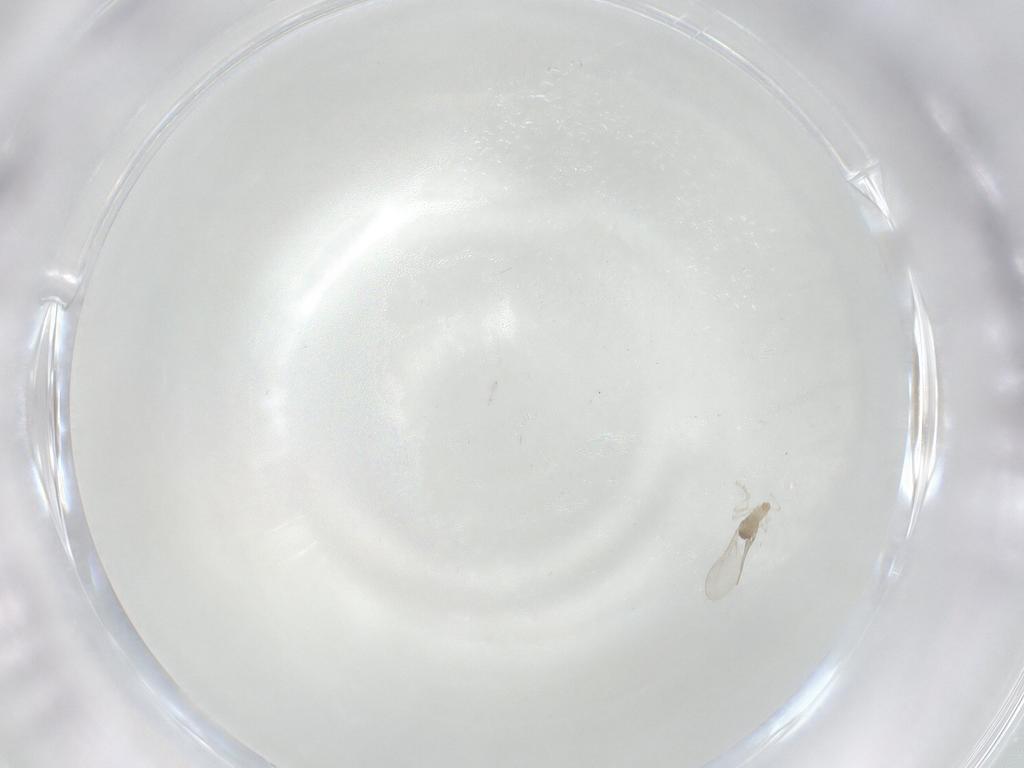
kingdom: Animalia
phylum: Arthropoda
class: Insecta
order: Diptera
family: Cecidomyiidae
